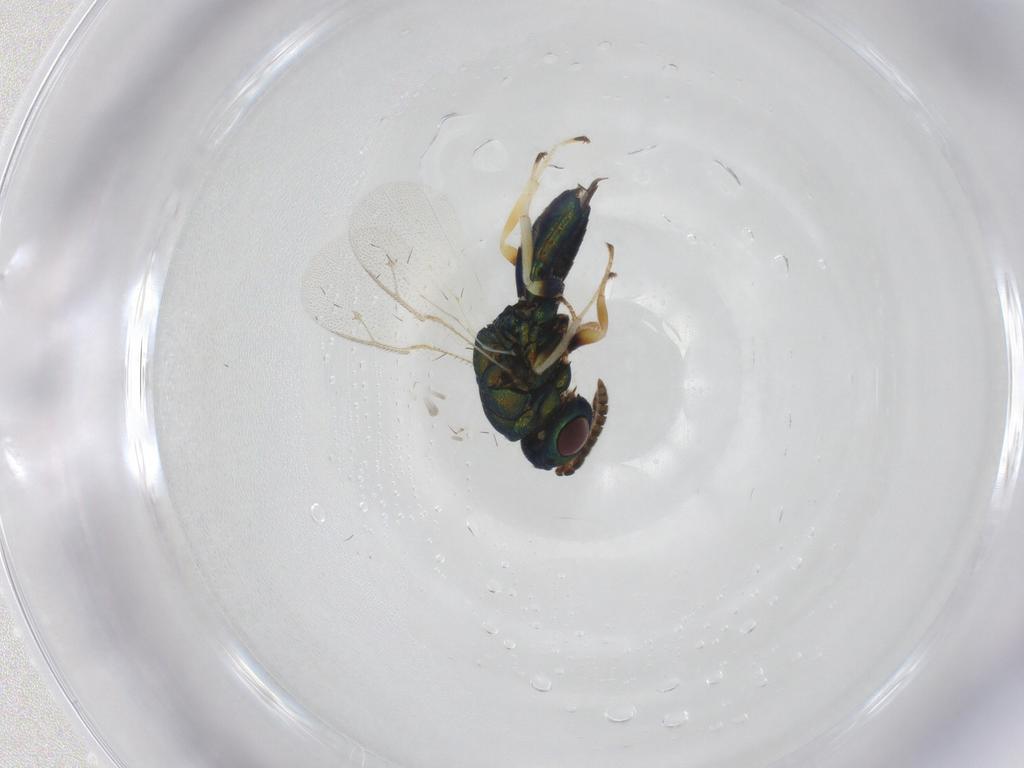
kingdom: Animalia
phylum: Arthropoda
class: Insecta
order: Hymenoptera
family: Pteromalidae
